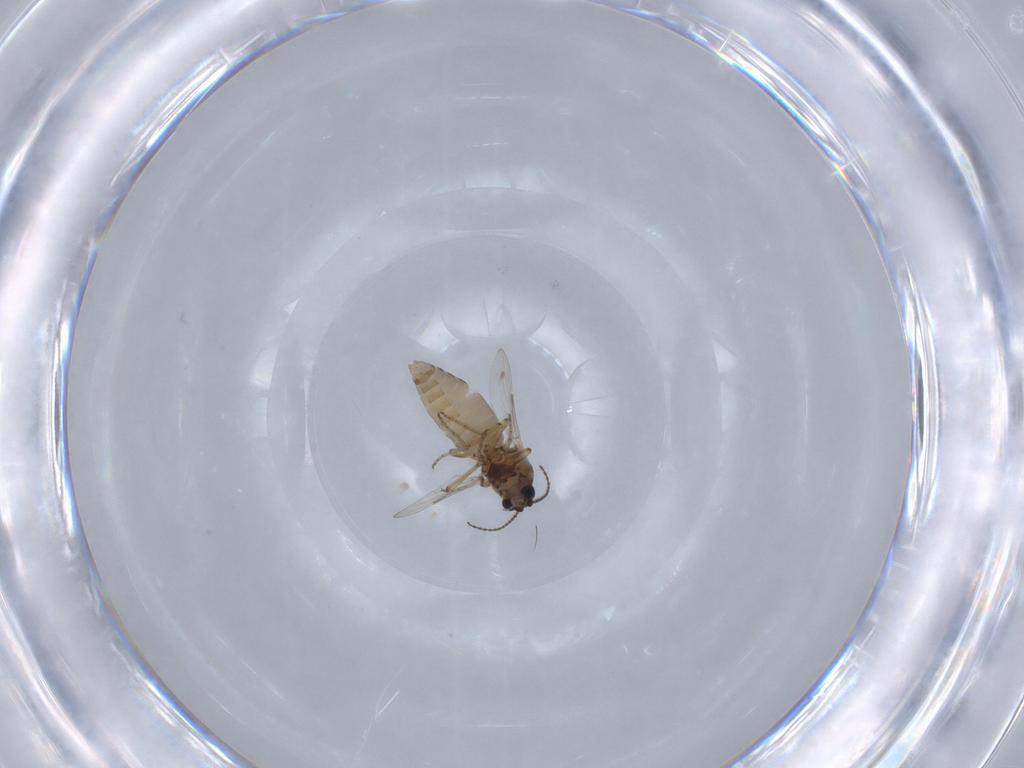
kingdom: Animalia
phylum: Arthropoda
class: Insecta
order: Diptera
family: Ceratopogonidae
